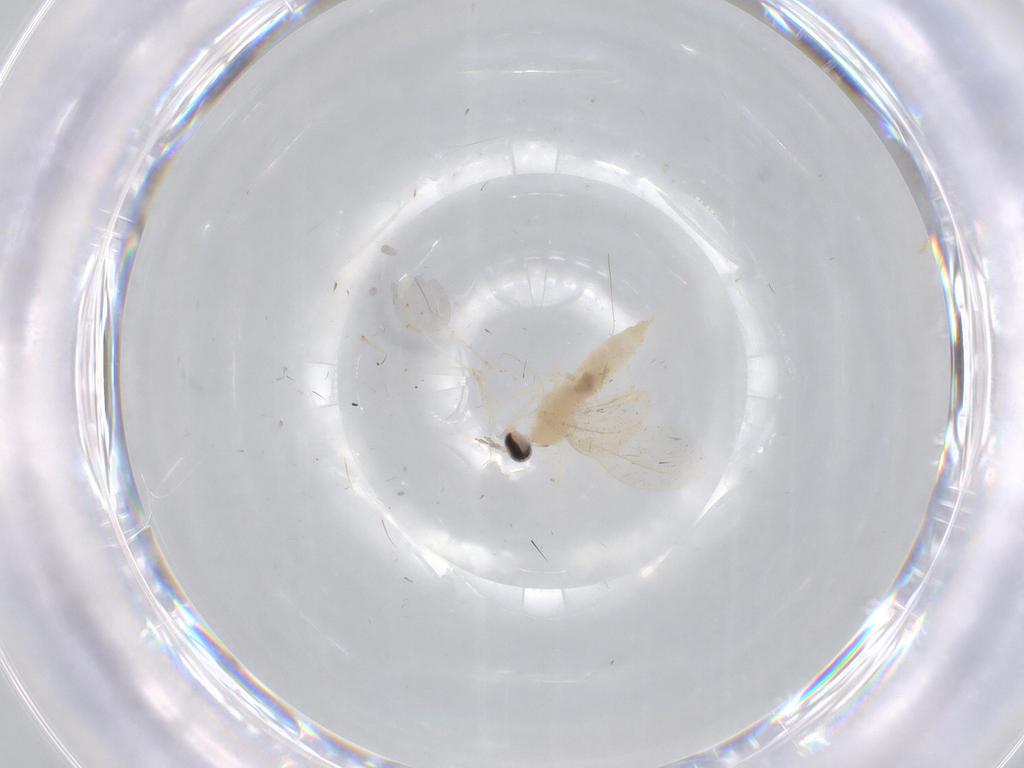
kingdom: Animalia
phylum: Arthropoda
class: Insecta
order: Diptera
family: Cecidomyiidae
